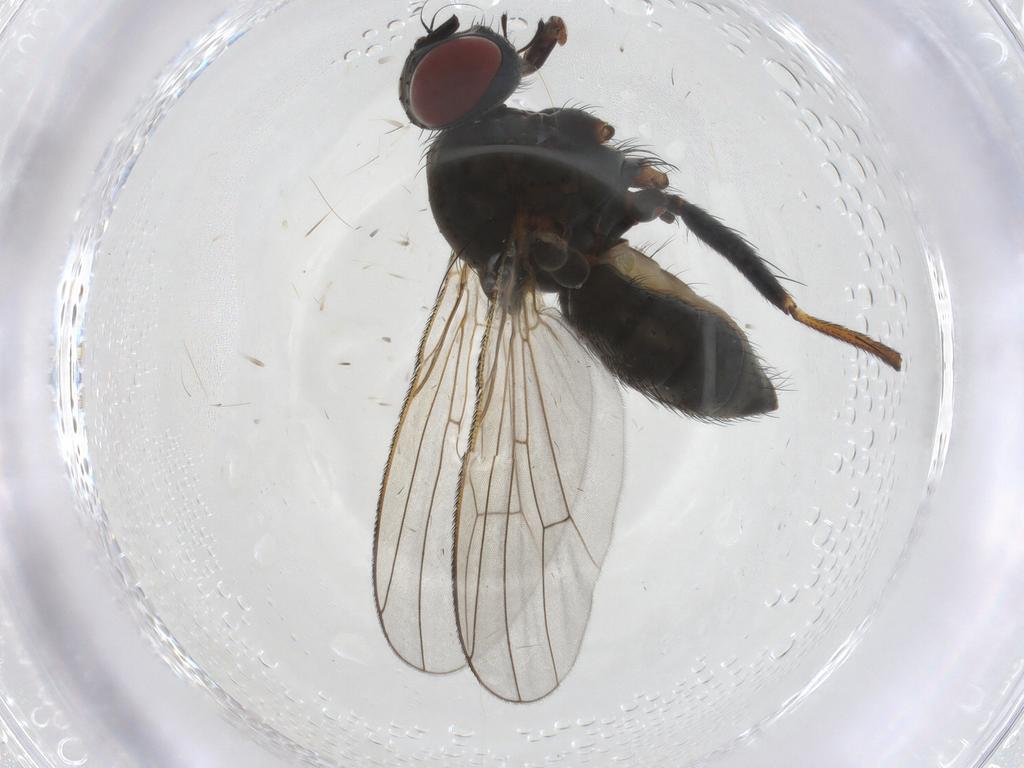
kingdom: Animalia
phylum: Arthropoda
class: Insecta
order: Diptera
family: Muscidae
